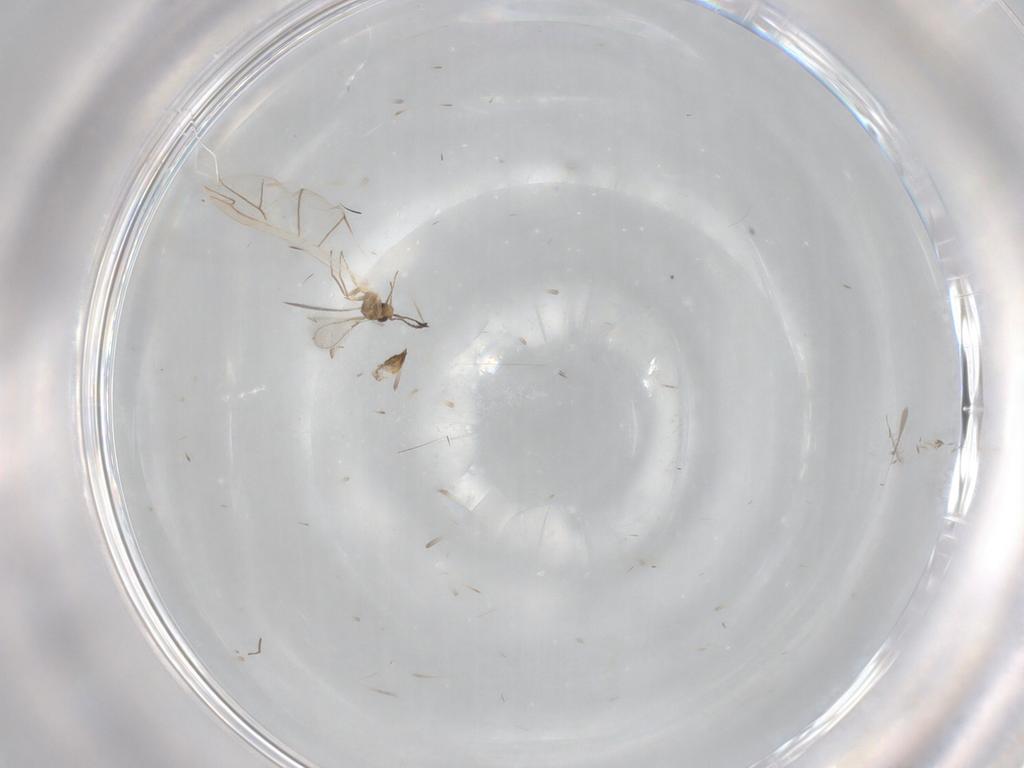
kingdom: Animalia
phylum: Arthropoda
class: Insecta
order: Hymenoptera
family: Mymaridae
